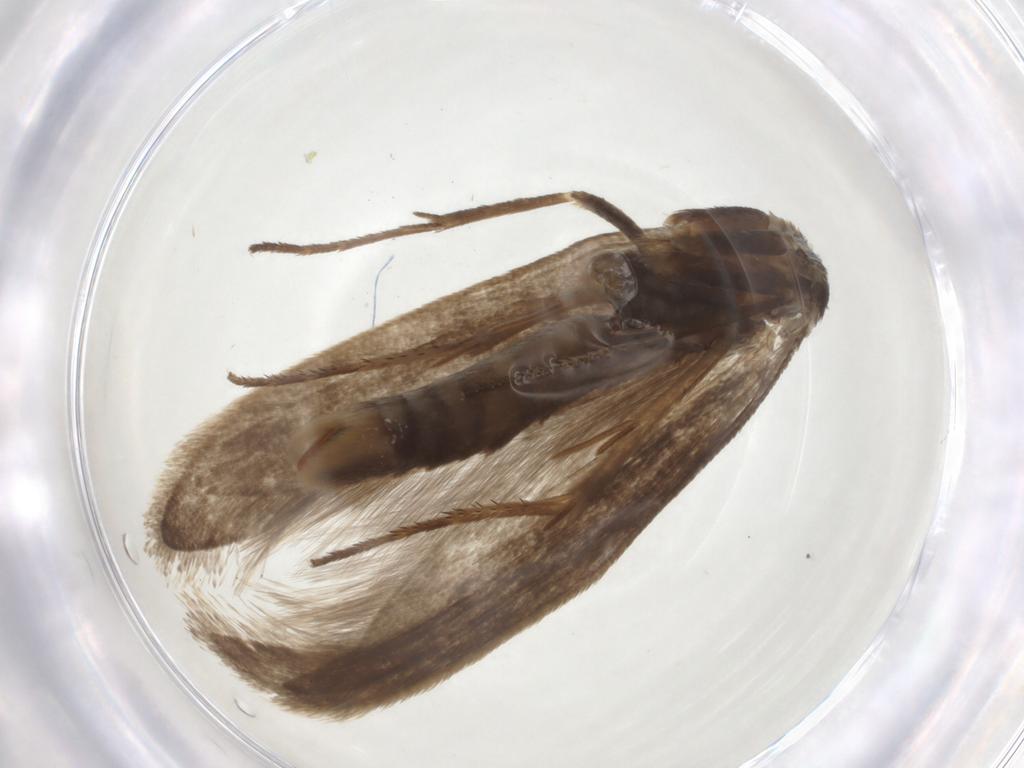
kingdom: Animalia
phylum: Arthropoda
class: Insecta
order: Lepidoptera
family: Plutellidae
